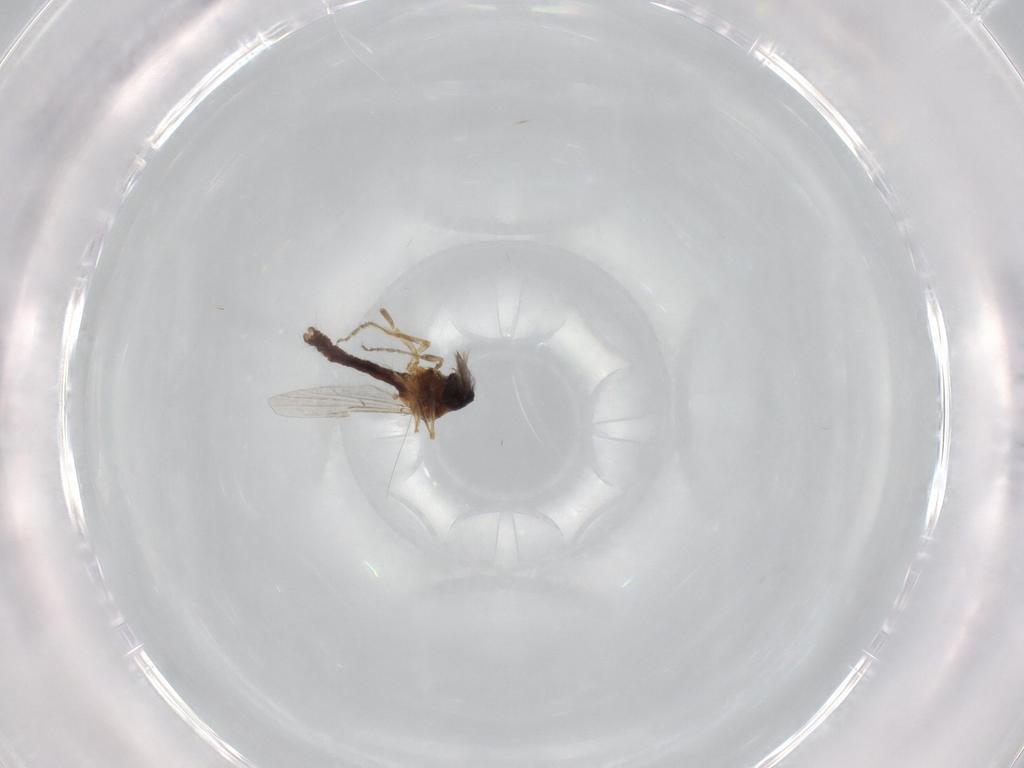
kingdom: Animalia
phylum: Arthropoda
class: Insecta
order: Diptera
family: Ceratopogonidae
